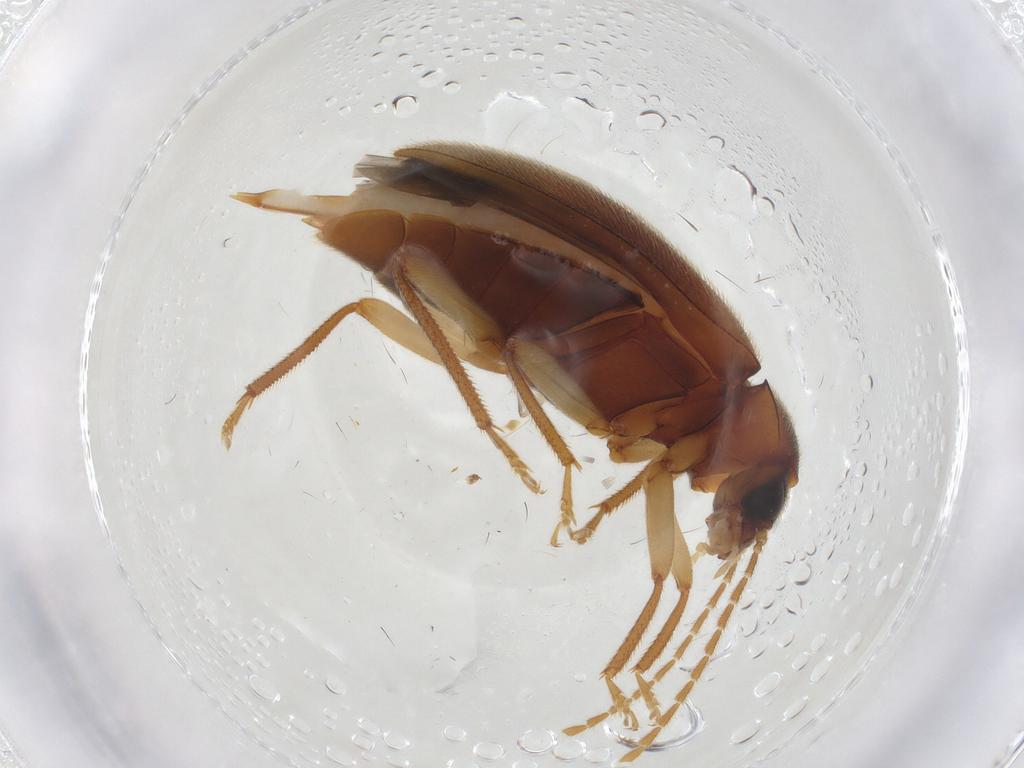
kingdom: Animalia
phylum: Arthropoda
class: Insecta
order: Coleoptera
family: Ptilodactylidae
